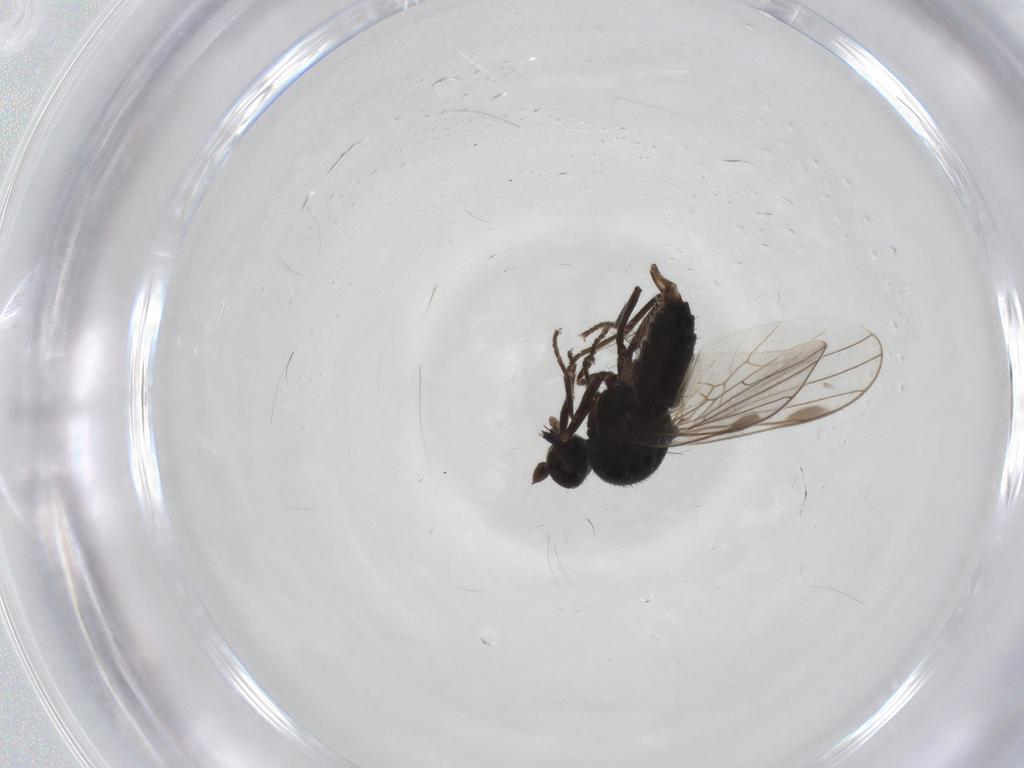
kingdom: Animalia
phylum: Arthropoda
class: Insecta
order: Diptera
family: Hybotidae
